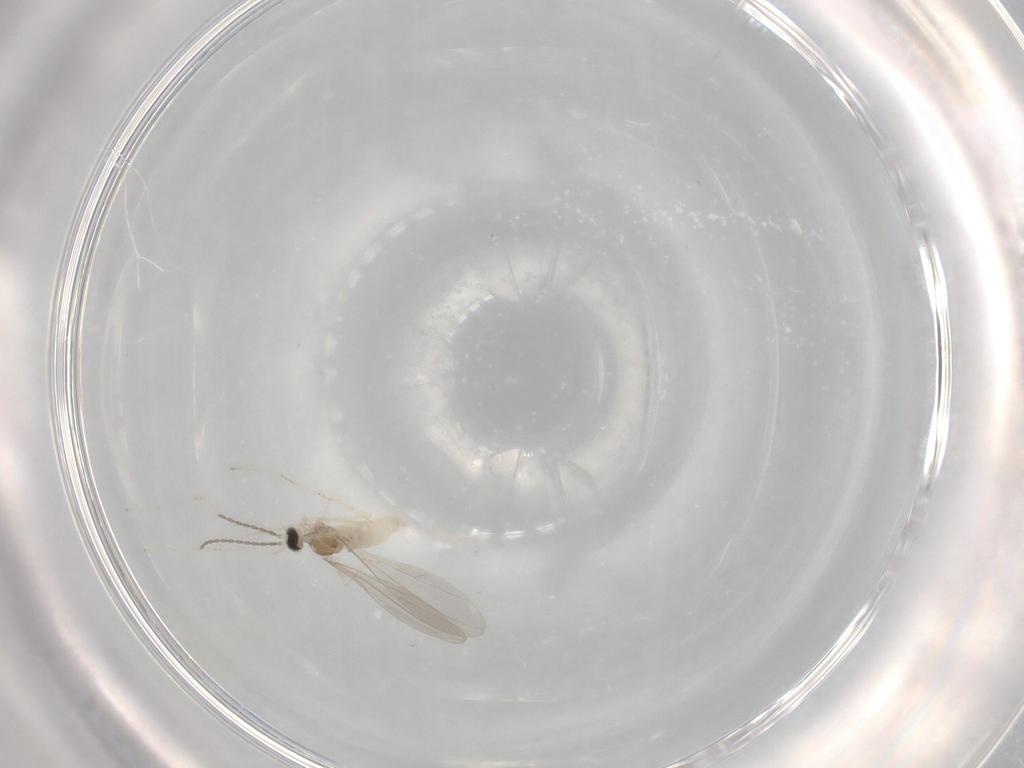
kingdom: Animalia
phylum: Arthropoda
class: Insecta
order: Diptera
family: Cecidomyiidae
